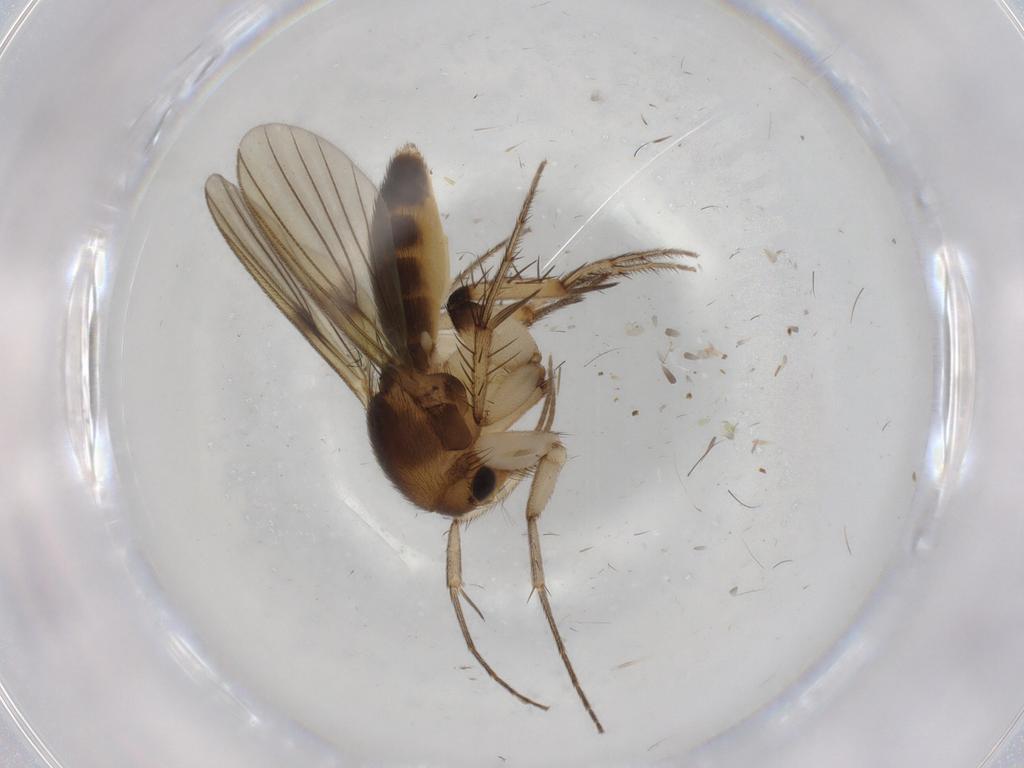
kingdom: Animalia
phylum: Arthropoda
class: Insecta
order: Diptera
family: Mycetophilidae
